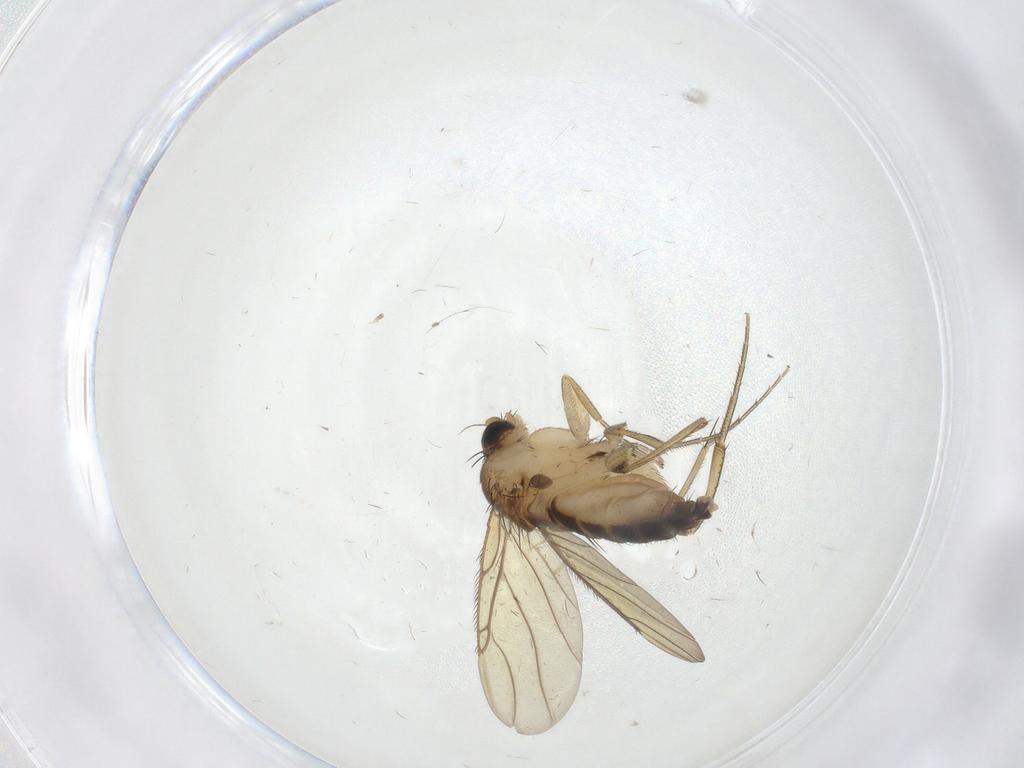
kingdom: Animalia
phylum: Arthropoda
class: Insecta
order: Diptera
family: Phoridae
